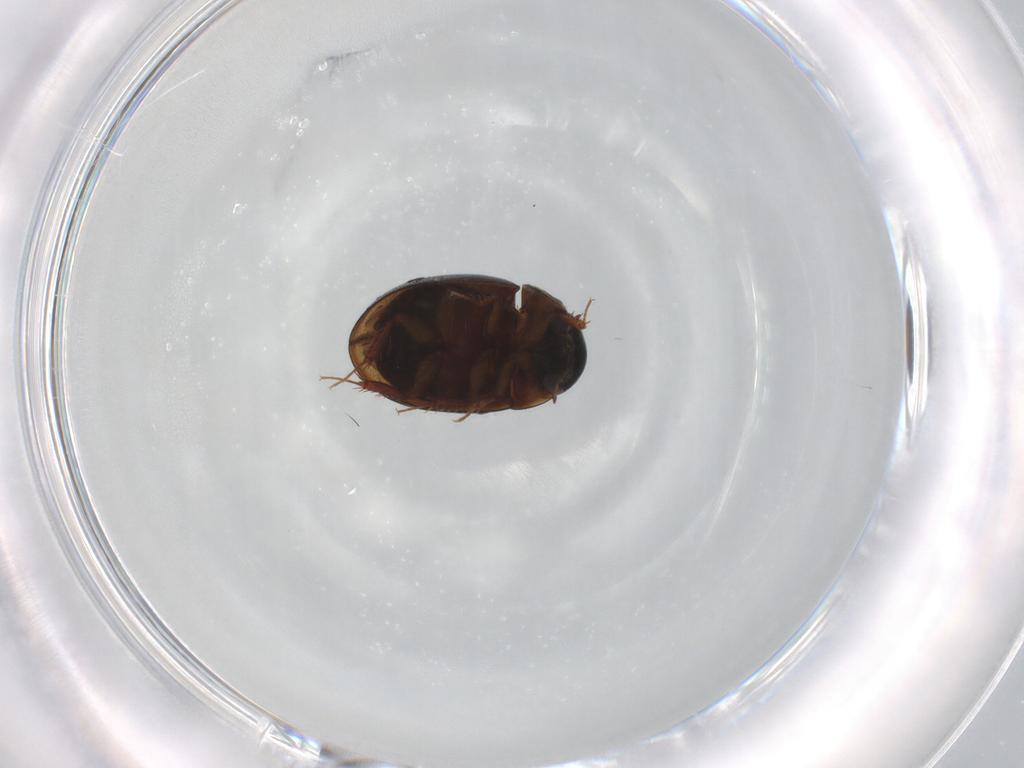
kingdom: Animalia
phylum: Arthropoda
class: Insecta
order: Coleoptera
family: Hydrophilidae
